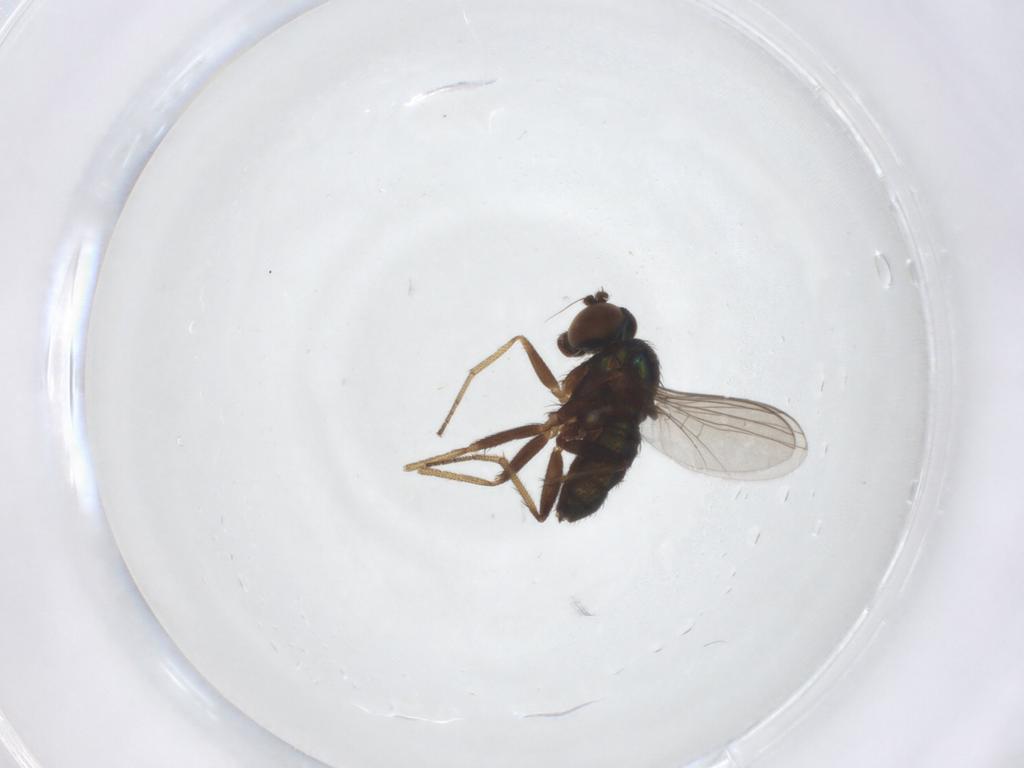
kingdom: Animalia
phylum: Arthropoda
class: Insecta
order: Diptera
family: Dolichopodidae
